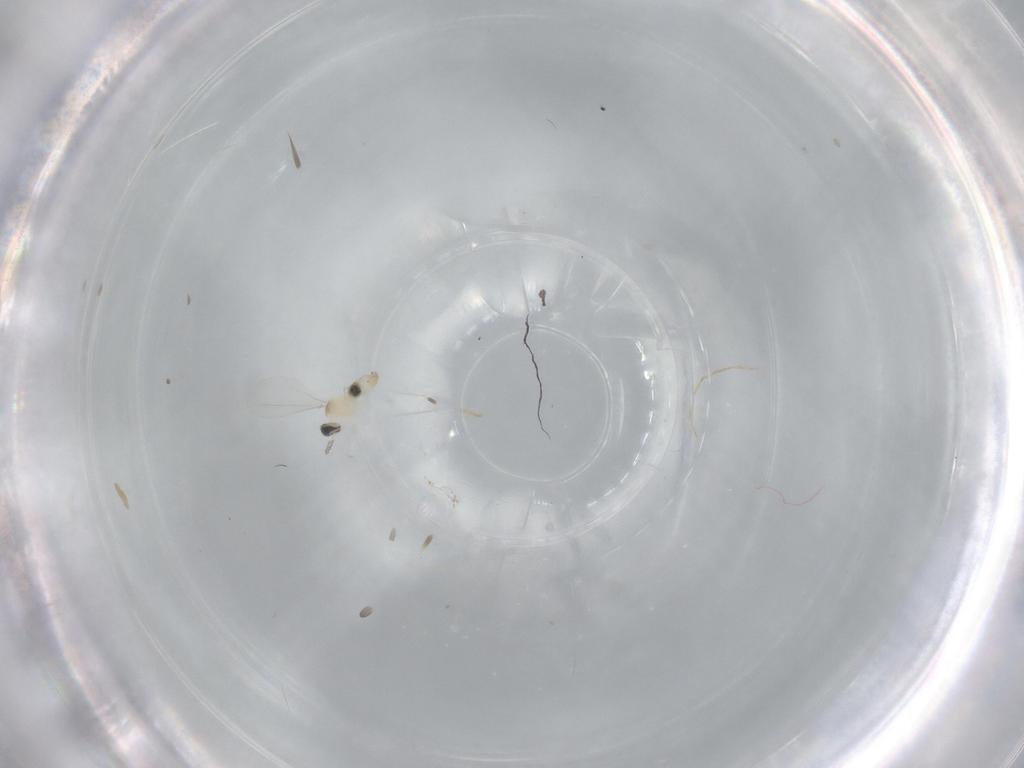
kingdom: Animalia
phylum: Arthropoda
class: Insecta
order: Diptera
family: Cecidomyiidae
